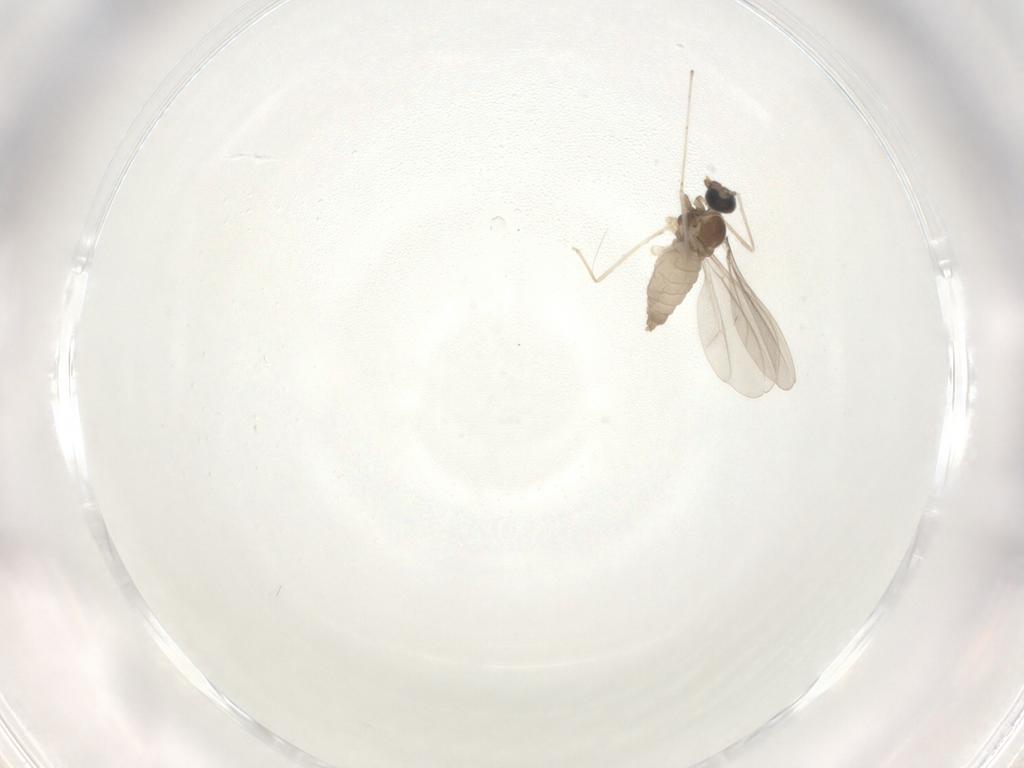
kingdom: Animalia
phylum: Arthropoda
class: Insecta
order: Diptera
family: Cecidomyiidae
